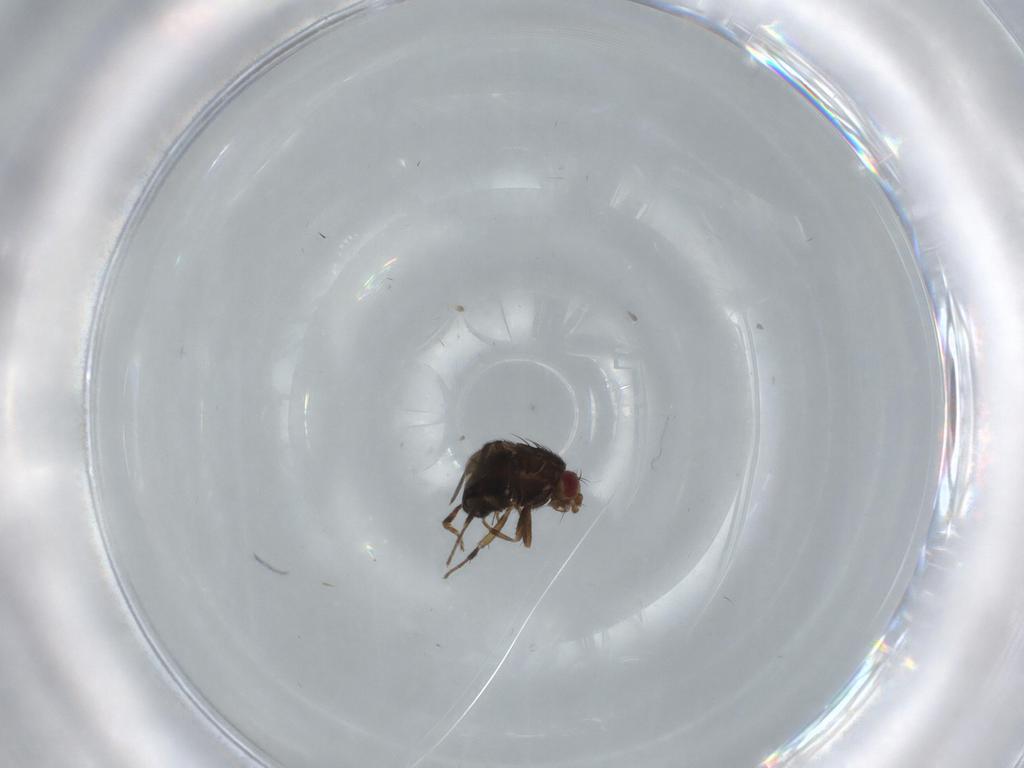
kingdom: Animalia
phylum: Arthropoda
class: Insecta
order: Diptera
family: Sphaeroceridae
